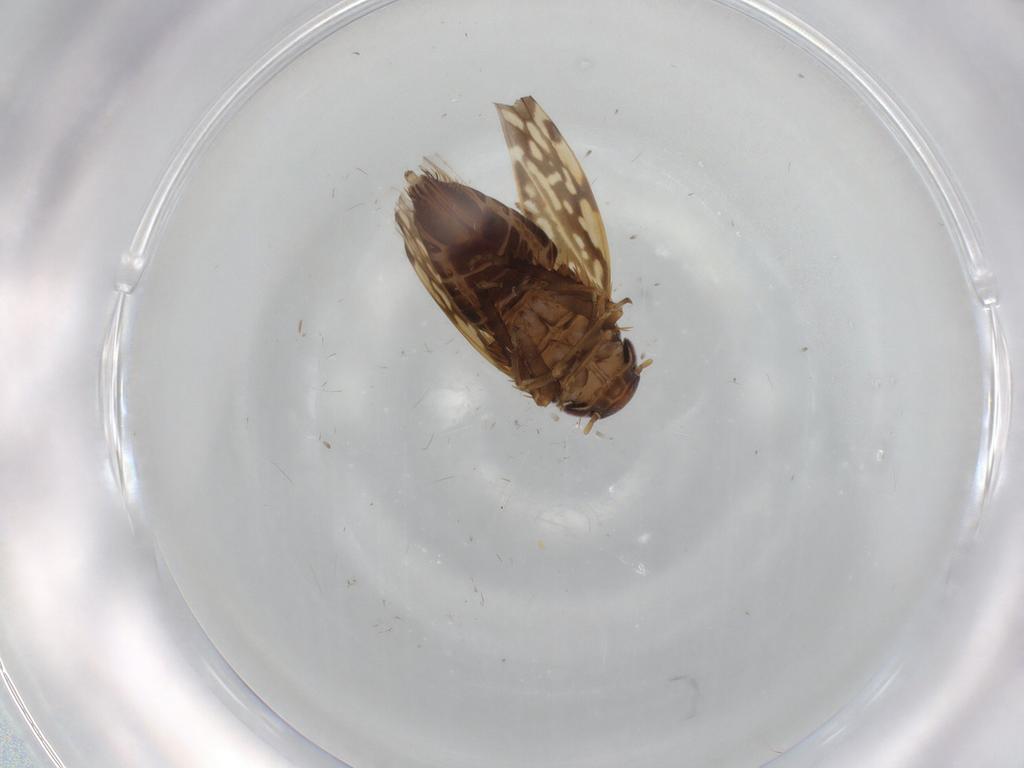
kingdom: Animalia
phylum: Arthropoda
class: Insecta
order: Hemiptera
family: Cicadellidae
